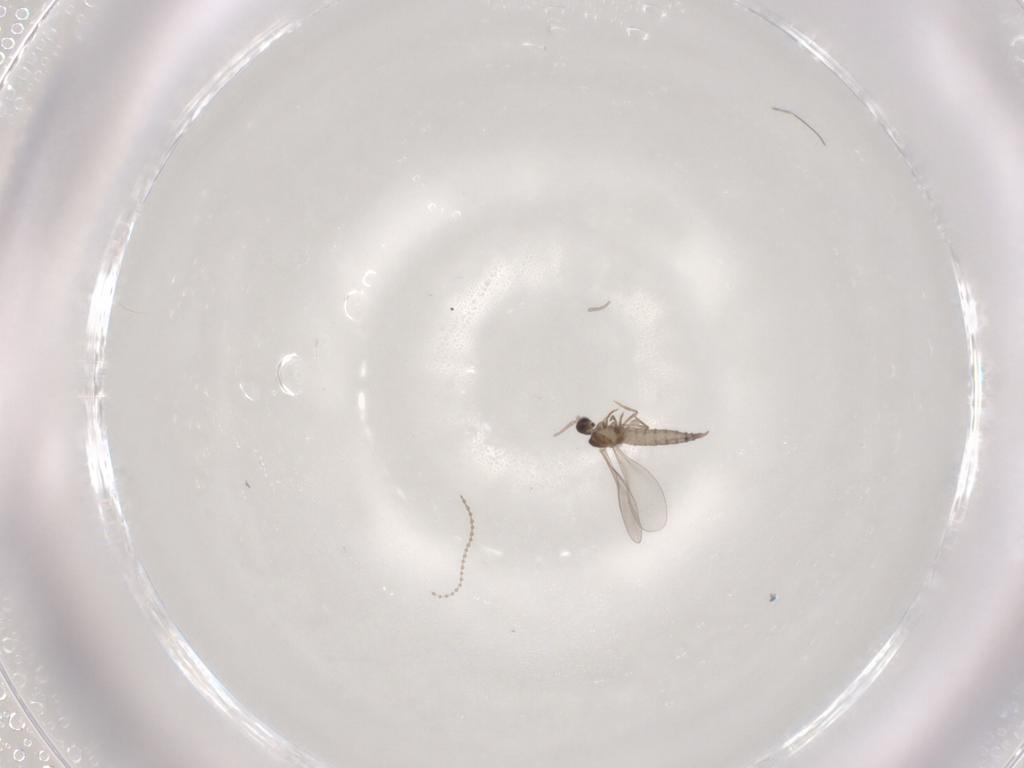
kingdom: Animalia
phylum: Arthropoda
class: Insecta
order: Diptera
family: Cecidomyiidae
